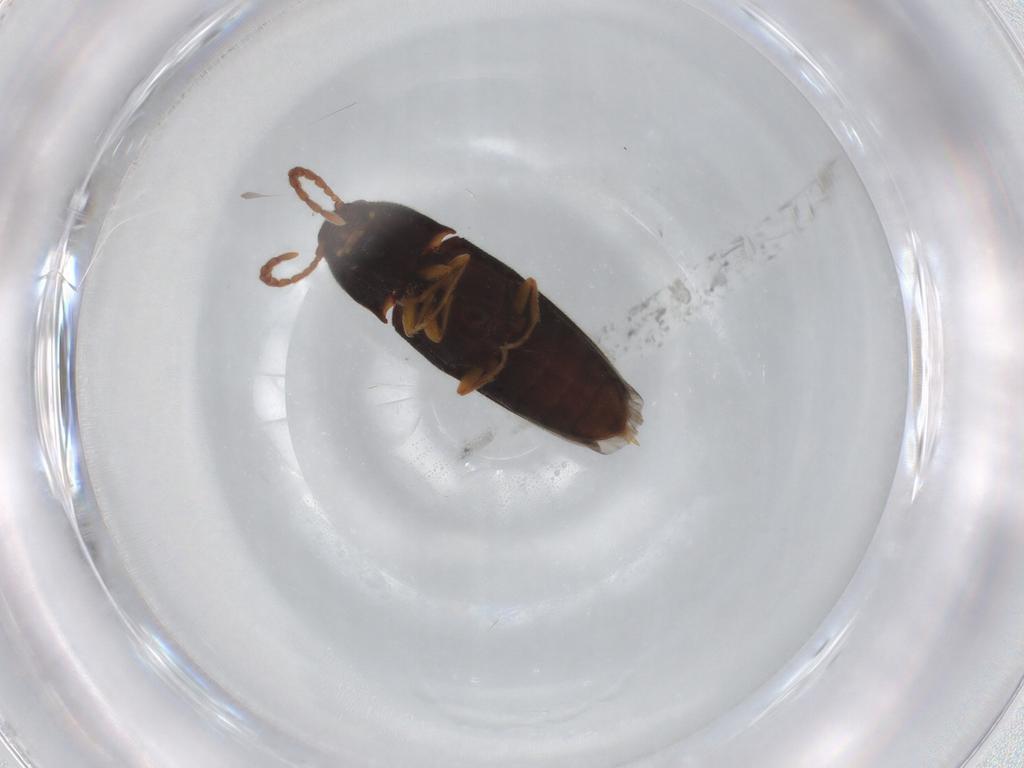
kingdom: Animalia
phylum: Arthropoda
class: Insecta
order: Coleoptera
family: Elateridae
